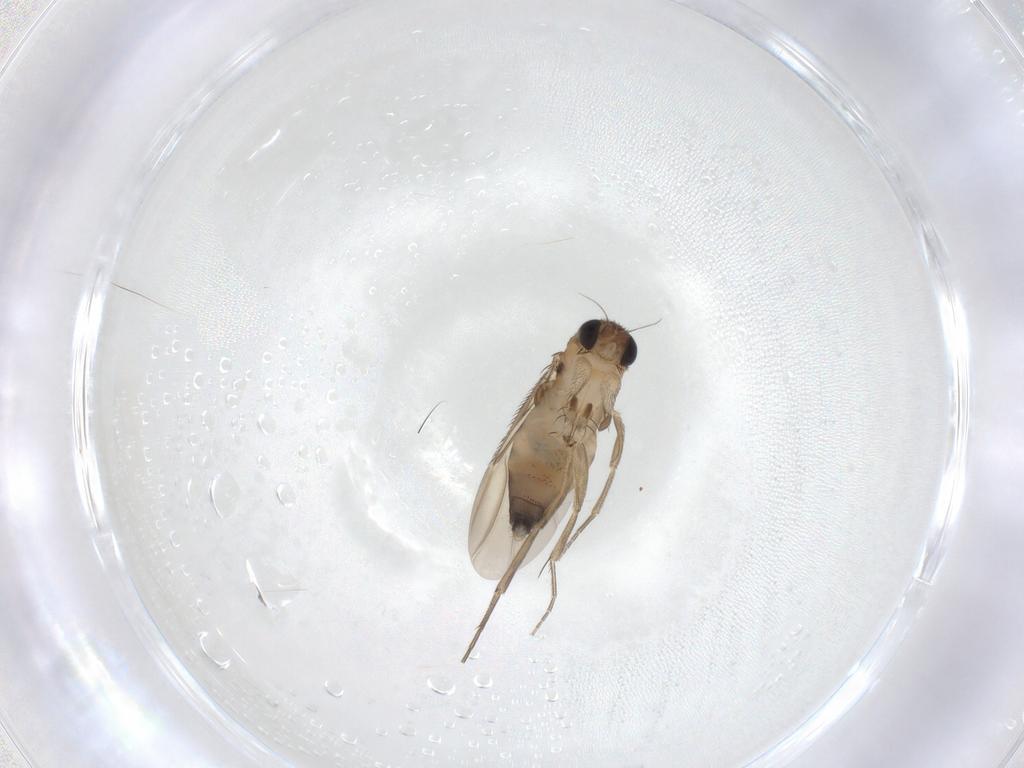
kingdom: Animalia
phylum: Arthropoda
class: Insecta
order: Diptera
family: Phoridae
